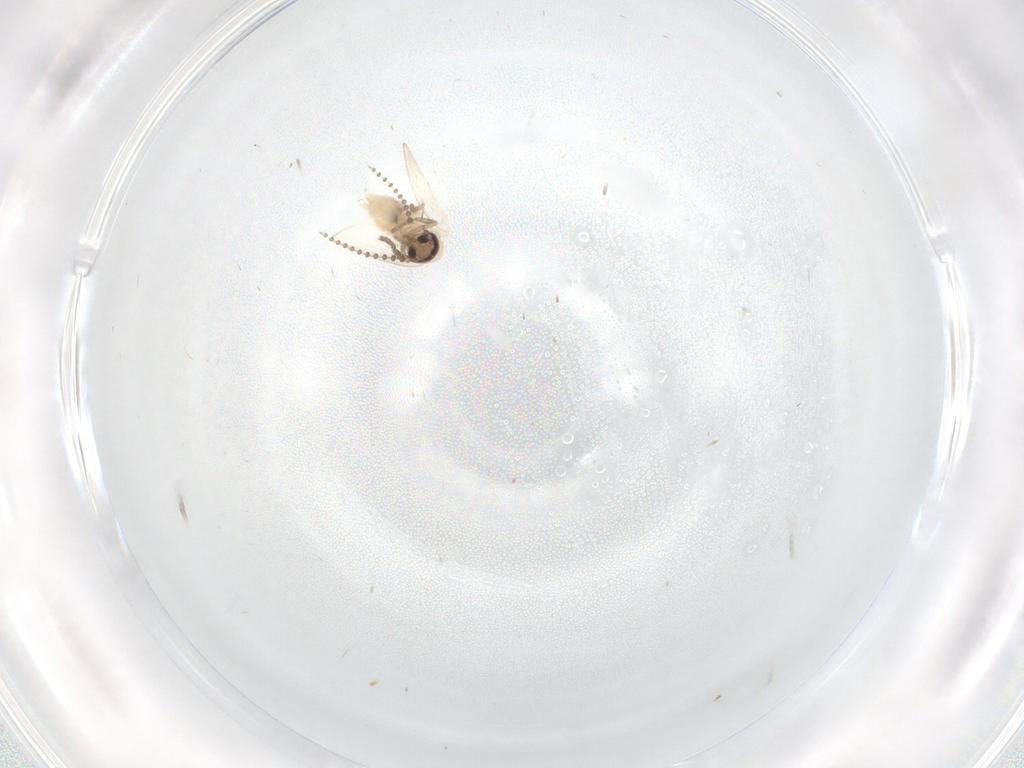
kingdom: Animalia
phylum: Arthropoda
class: Insecta
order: Diptera
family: Psychodidae
